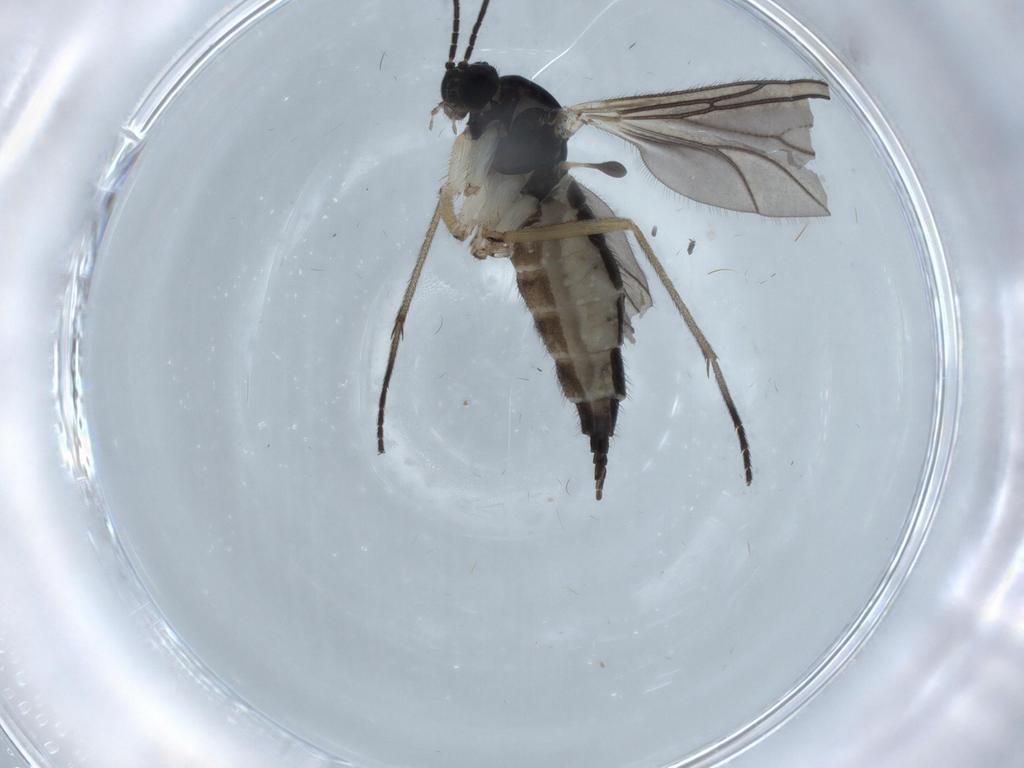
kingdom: Animalia
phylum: Arthropoda
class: Insecta
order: Diptera
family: Sciaridae
